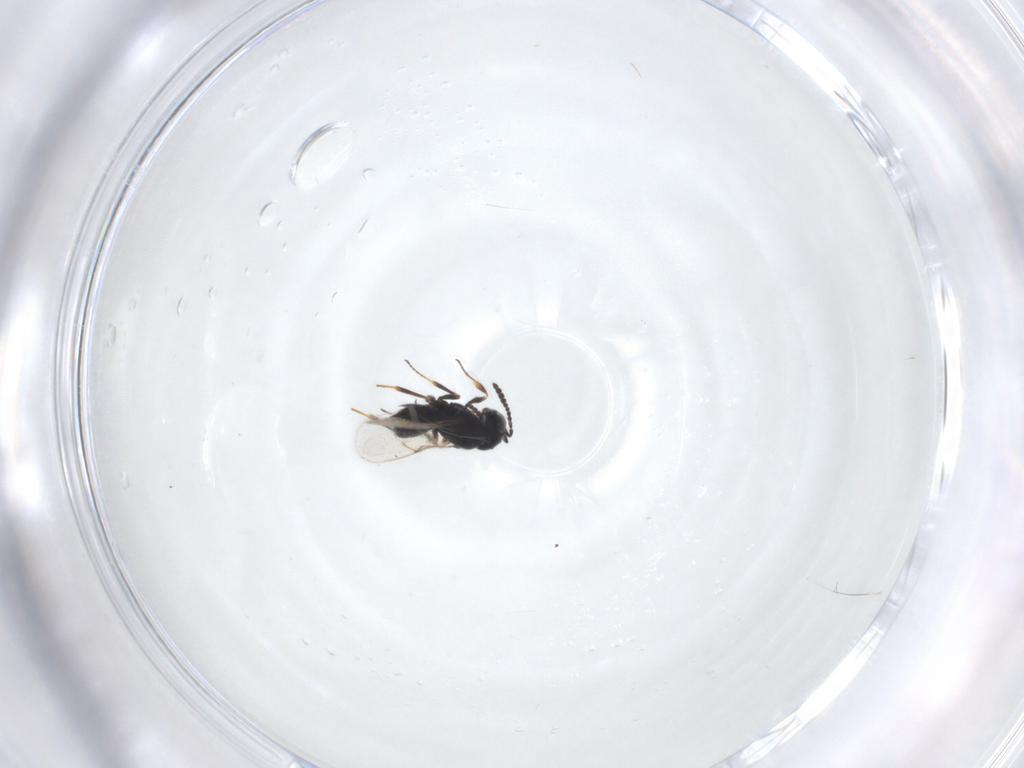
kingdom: Animalia
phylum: Arthropoda
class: Insecta
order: Hymenoptera
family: Scelionidae
